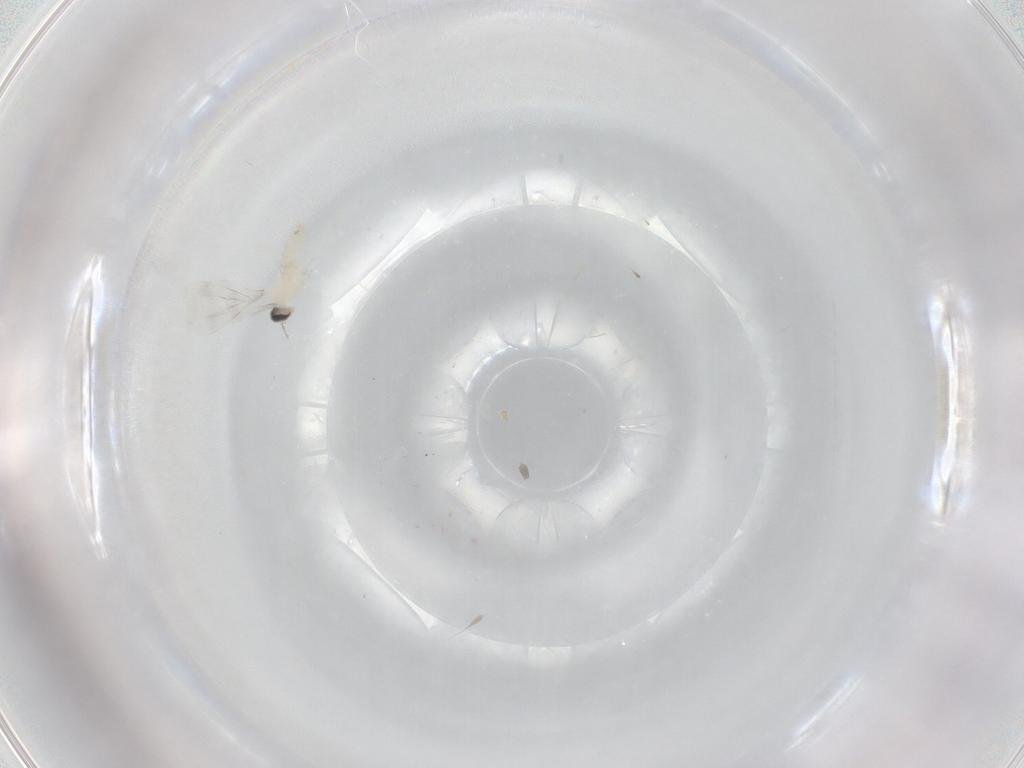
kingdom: Animalia
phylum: Arthropoda
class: Insecta
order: Diptera
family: Cecidomyiidae
